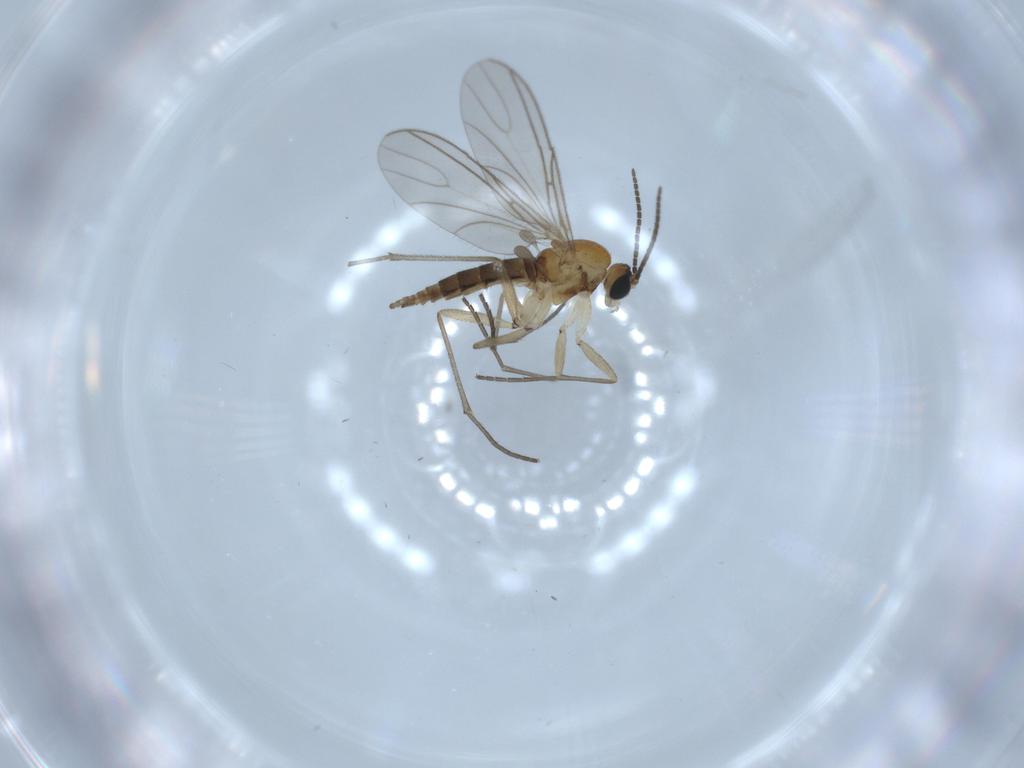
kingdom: Animalia
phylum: Arthropoda
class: Insecta
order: Diptera
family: Sciaridae
